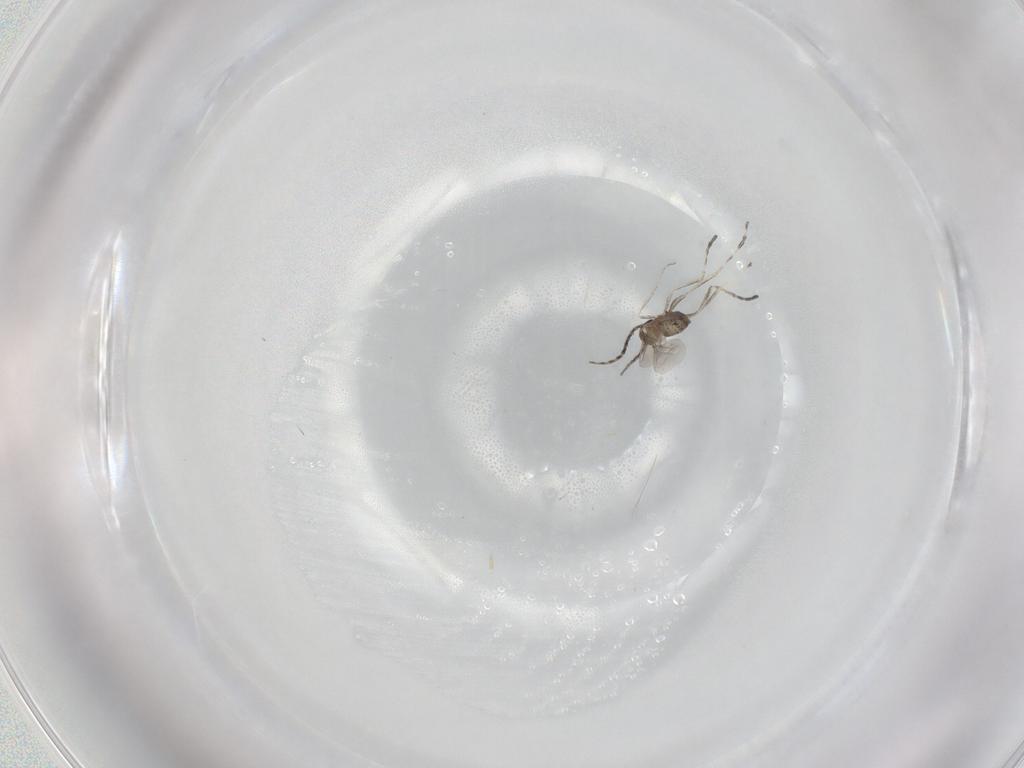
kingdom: Animalia
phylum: Arthropoda
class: Insecta
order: Diptera
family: Cecidomyiidae
